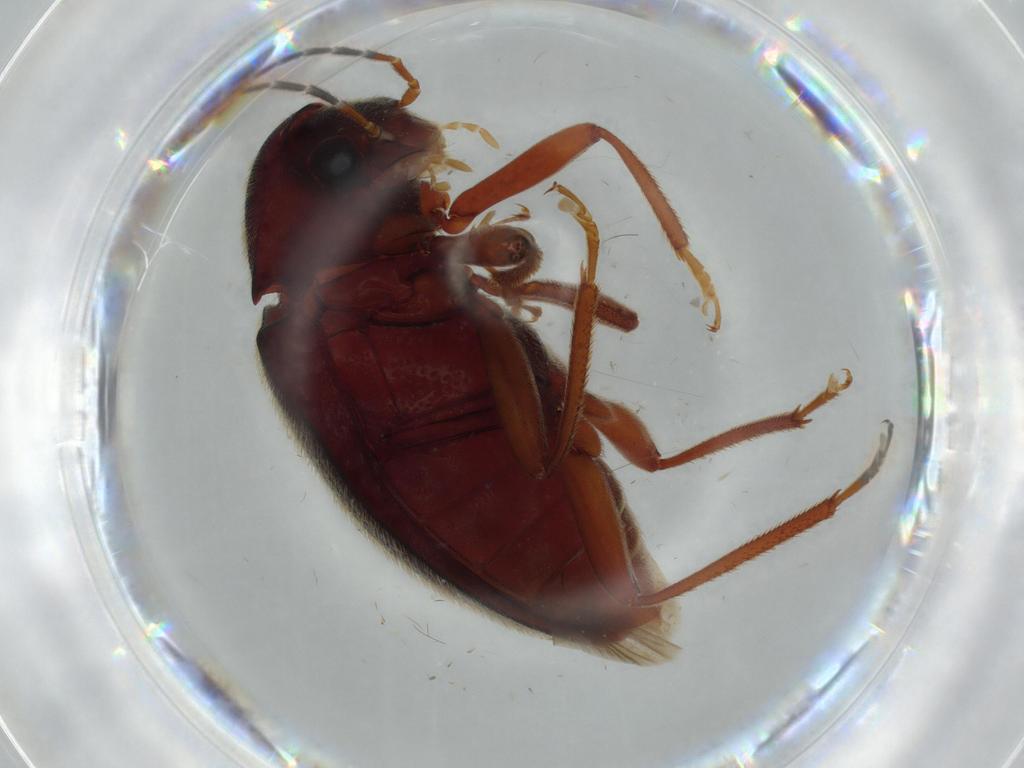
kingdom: Animalia
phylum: Arthropoda
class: Insecta
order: Coleoptera
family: Ptilodactylidae
